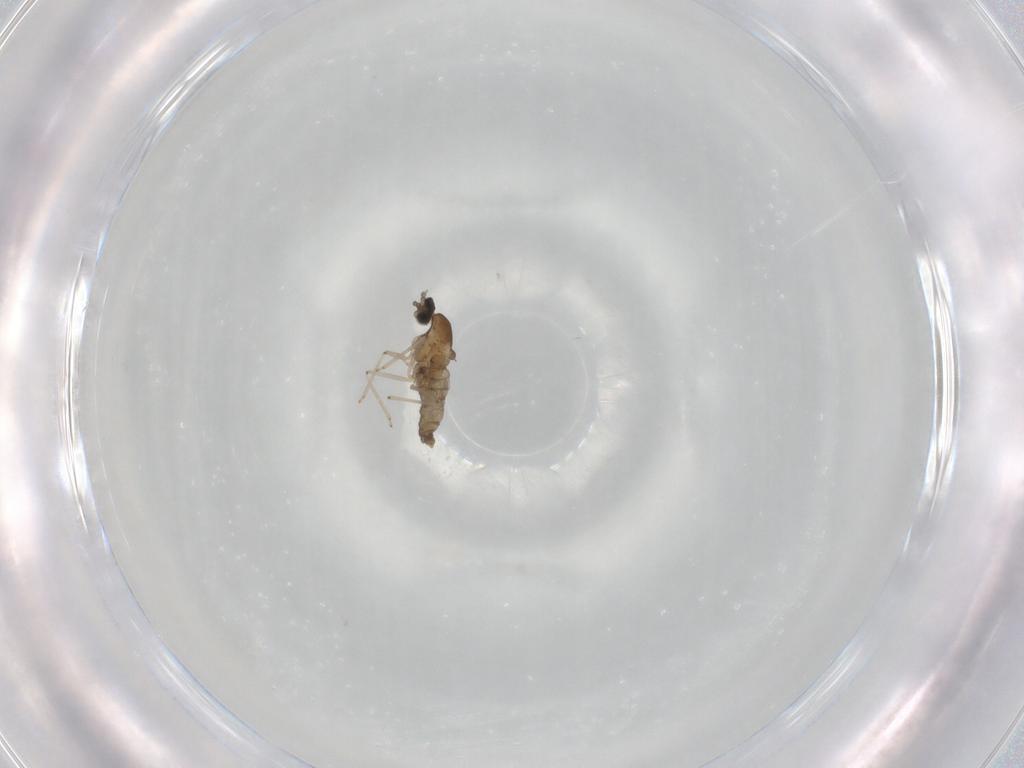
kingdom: Animalia
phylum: Arthropoda
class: Insecta
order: Diptera
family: Cecidomyiidae
